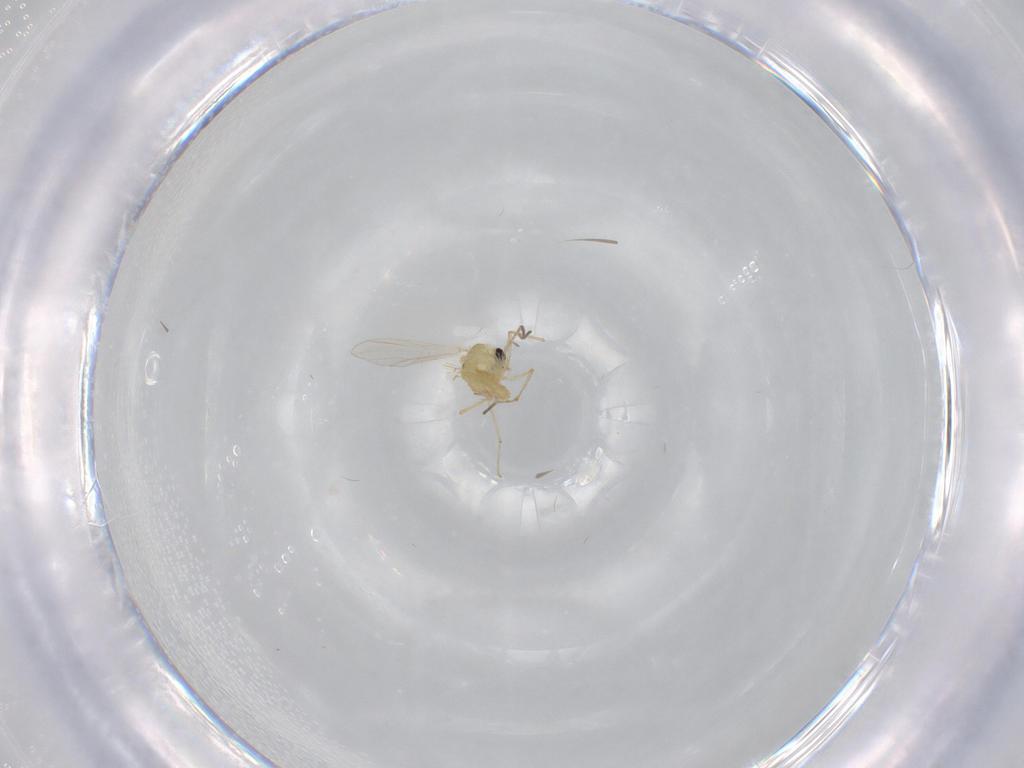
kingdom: Animalia
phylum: Arthropoda
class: Insecta
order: Diptera
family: Chironomidae
